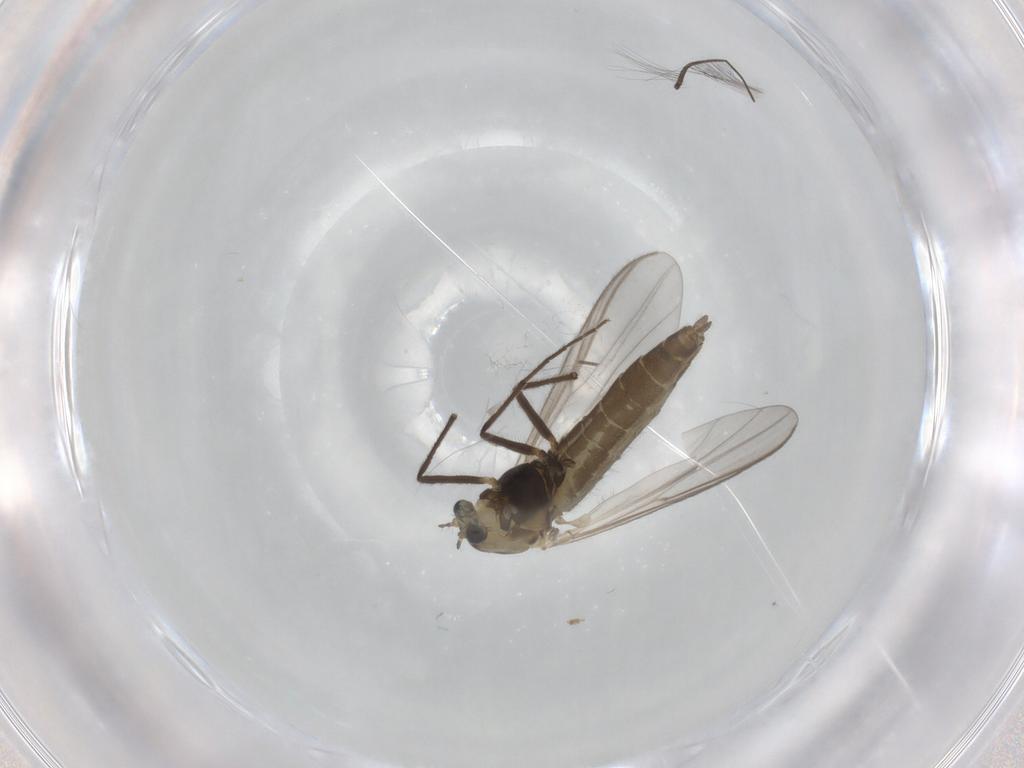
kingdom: Animalia
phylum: Arthropoda
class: Insecta
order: Diptera
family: Chironomidae
